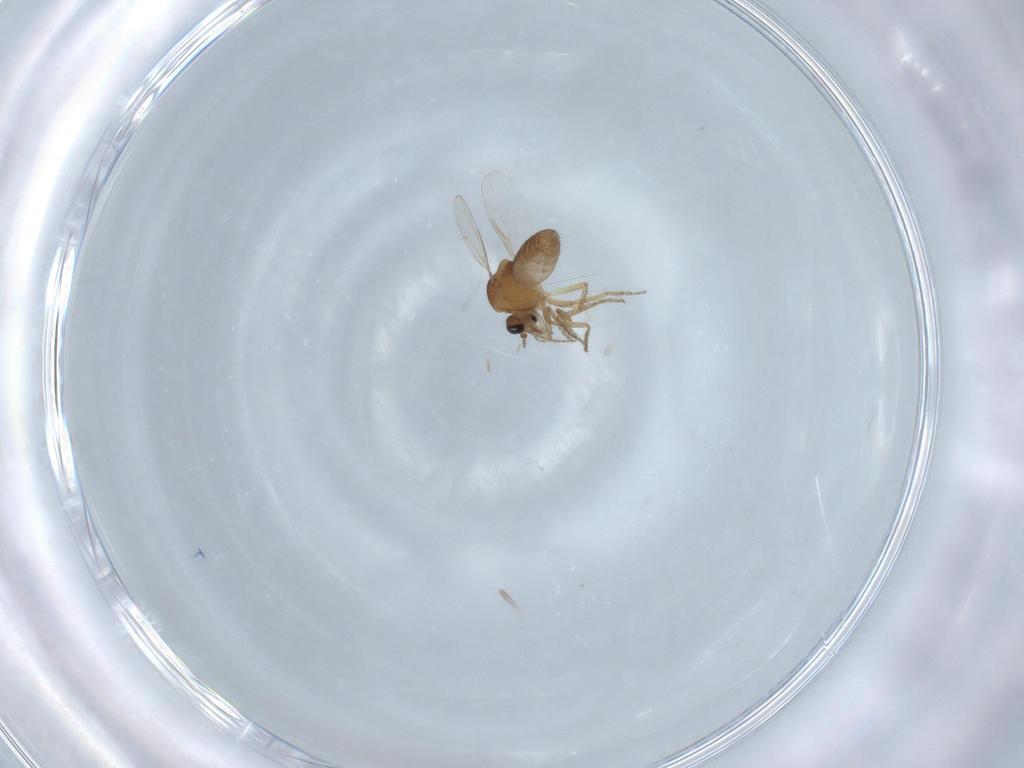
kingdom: Animalia
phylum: Arthropoda
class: Insecta
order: Diptera
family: Ceratopogonidae
